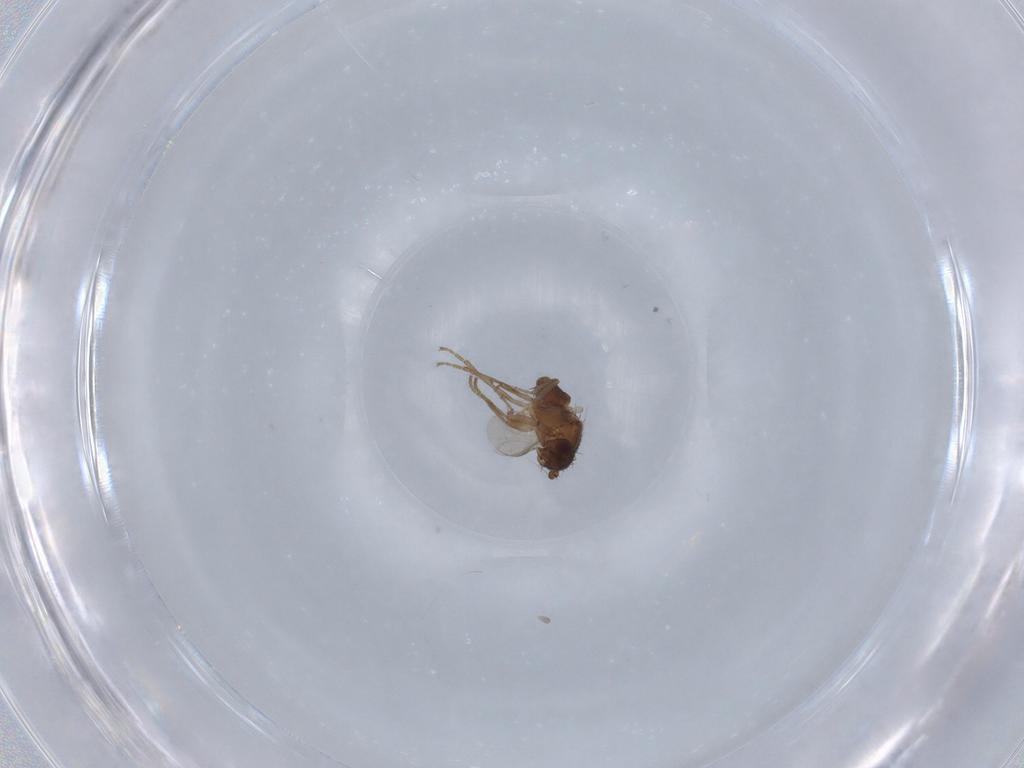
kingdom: Animalia
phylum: Arthropoda
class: Insecta
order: Diptera
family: Sphaeroceridae
